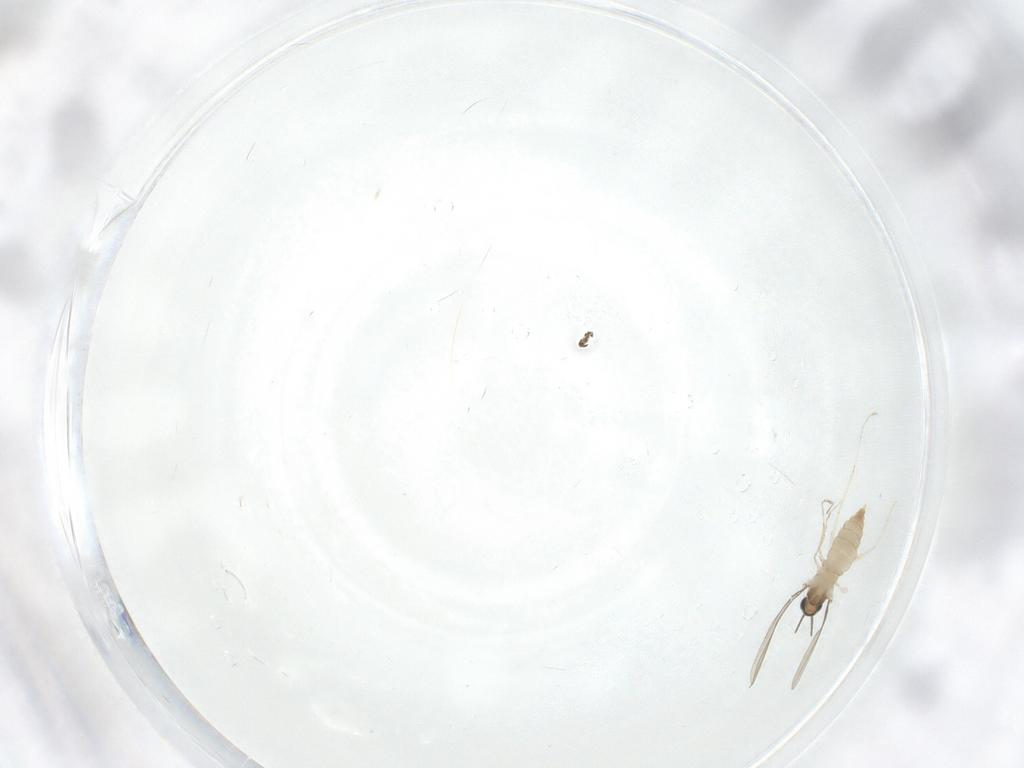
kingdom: Animalia
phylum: Arthropoda
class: Insecta
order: Diptera
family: Cecidomyiidae
